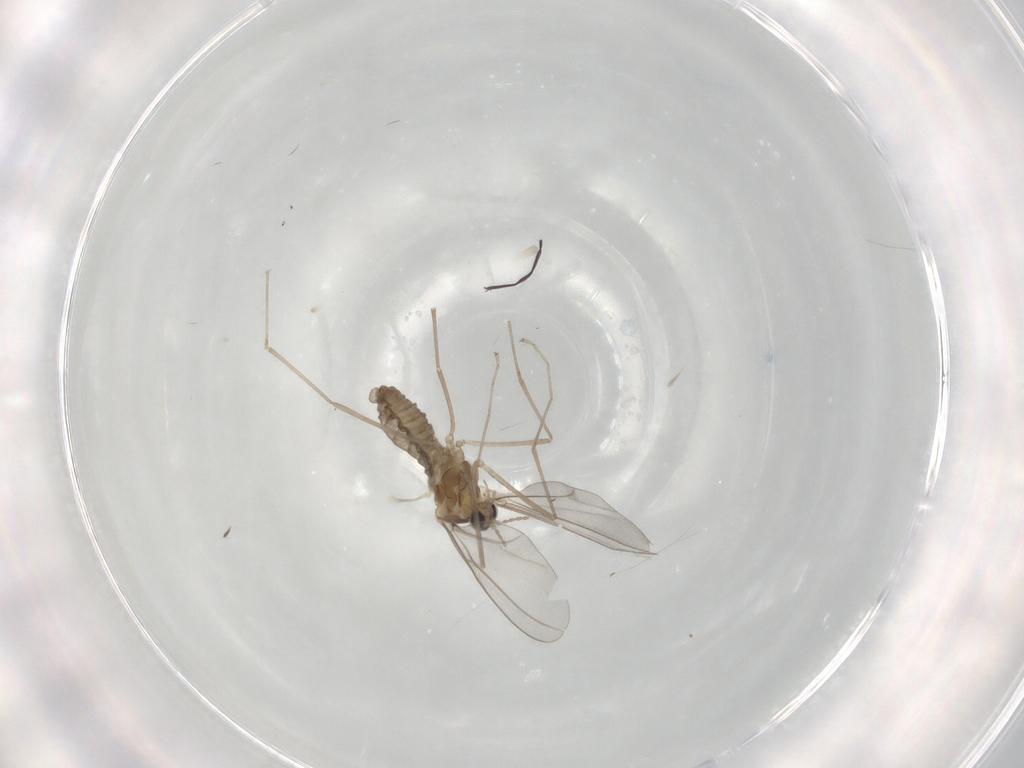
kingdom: Animalia
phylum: Arthropoda
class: Insecta
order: Diptera
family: Cecidomyiidae
